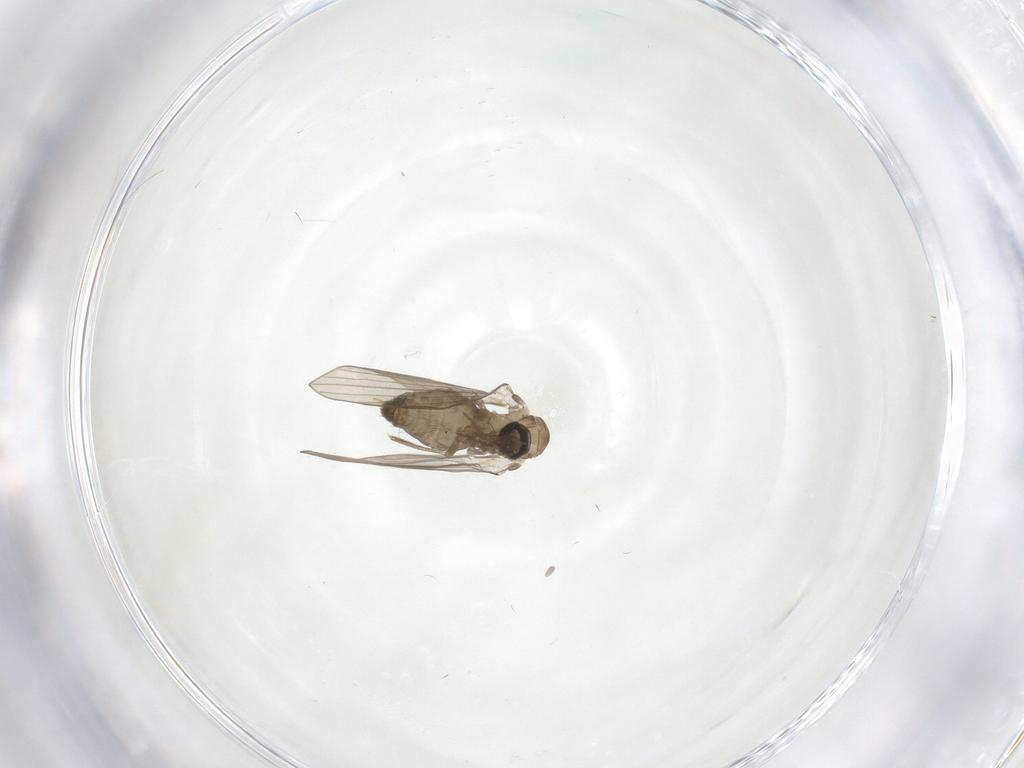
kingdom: Animalia
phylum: Arthropoda
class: Insecta
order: Diptera
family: Psychodidae
